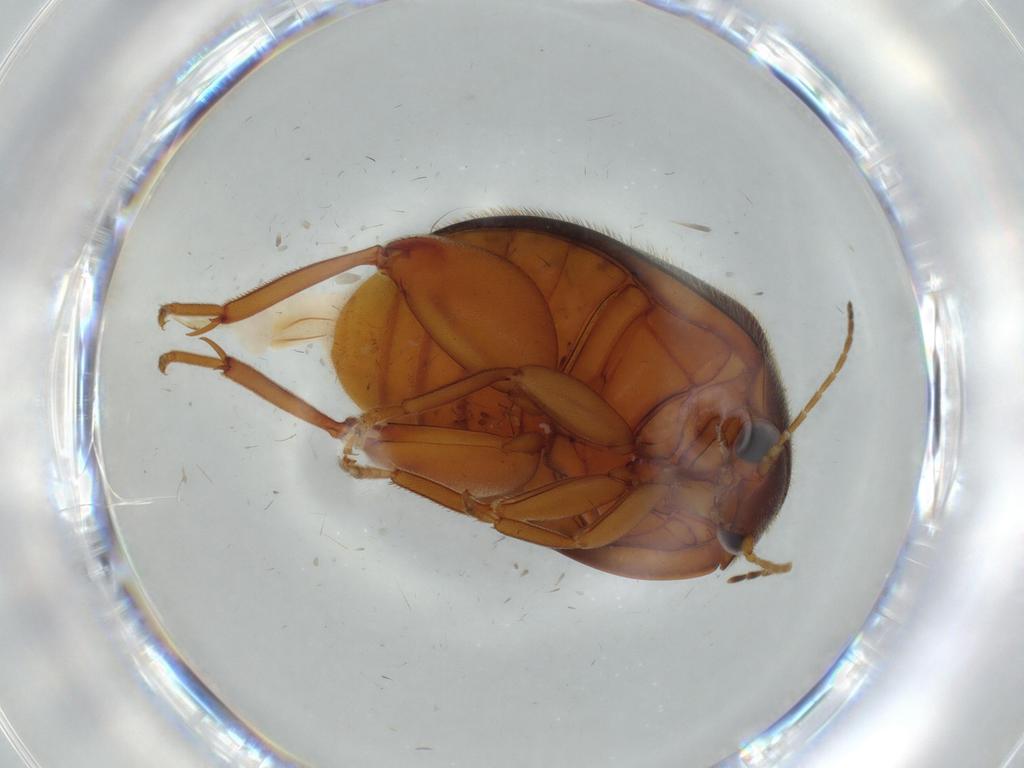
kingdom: Animalia
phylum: Arthropoda
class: Insecta
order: Coleoptera
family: Scirtidae
